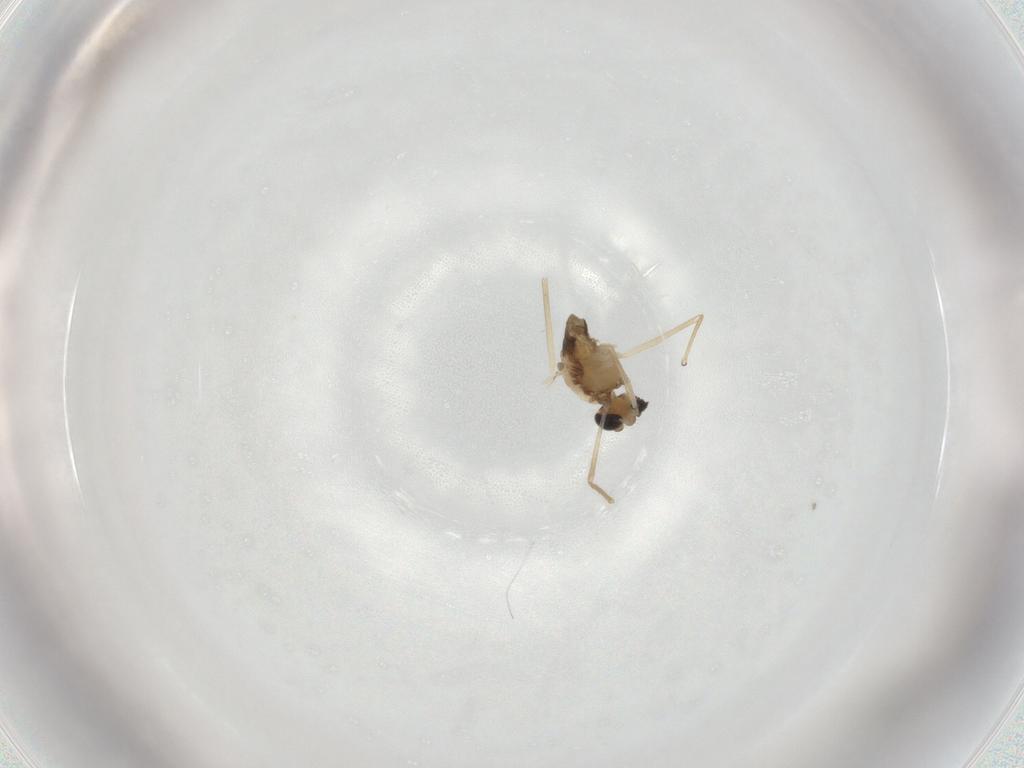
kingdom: Animalia
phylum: Arthropoda
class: Insecta
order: Diptera
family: Chironomidae
